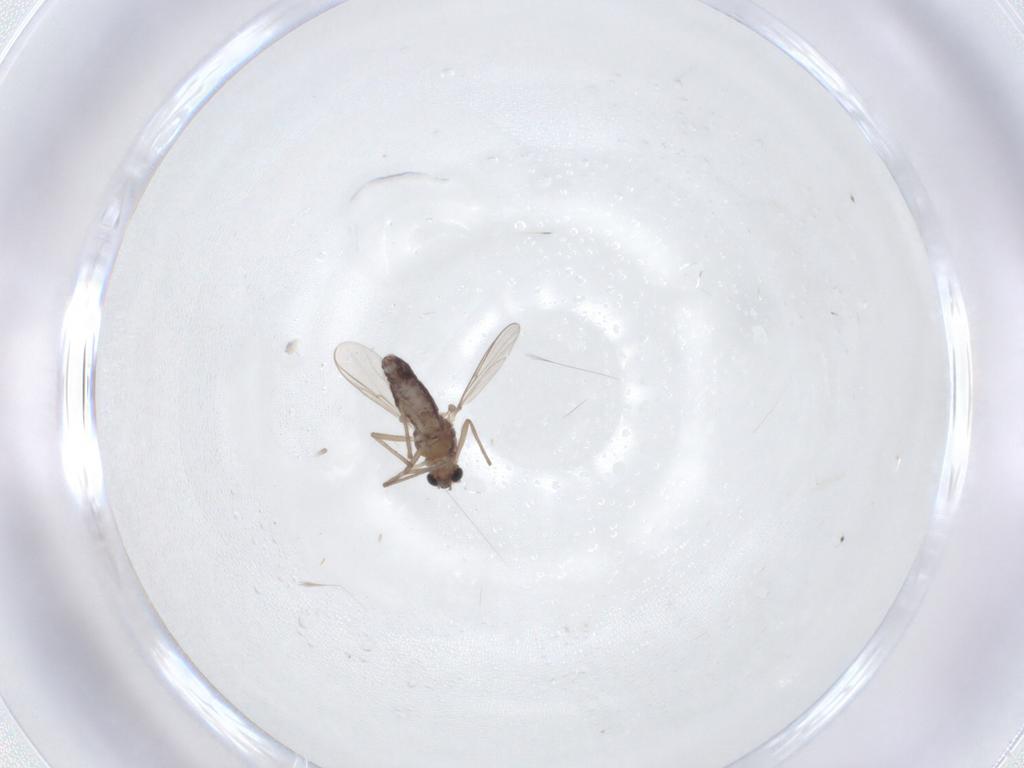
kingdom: Animalia
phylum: Arthropoda
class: Insecta
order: Diptera
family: Chironomidae
